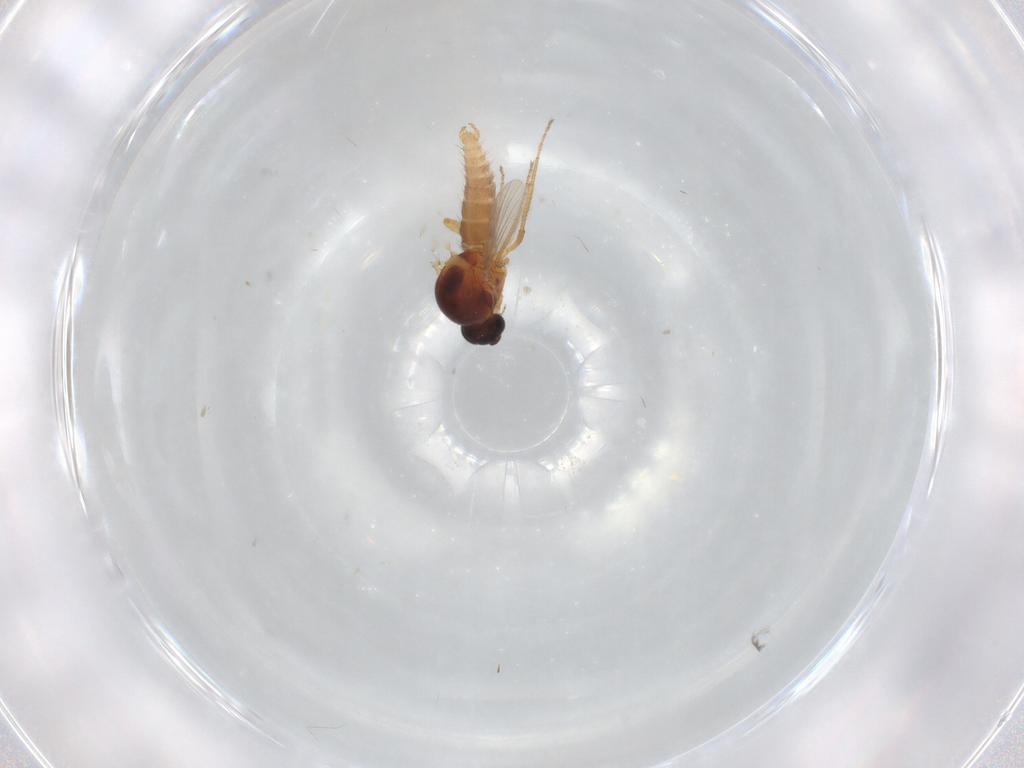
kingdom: Animalia
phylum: Arthropoda
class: Insecta
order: Diptera
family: Ceratopogonidae
